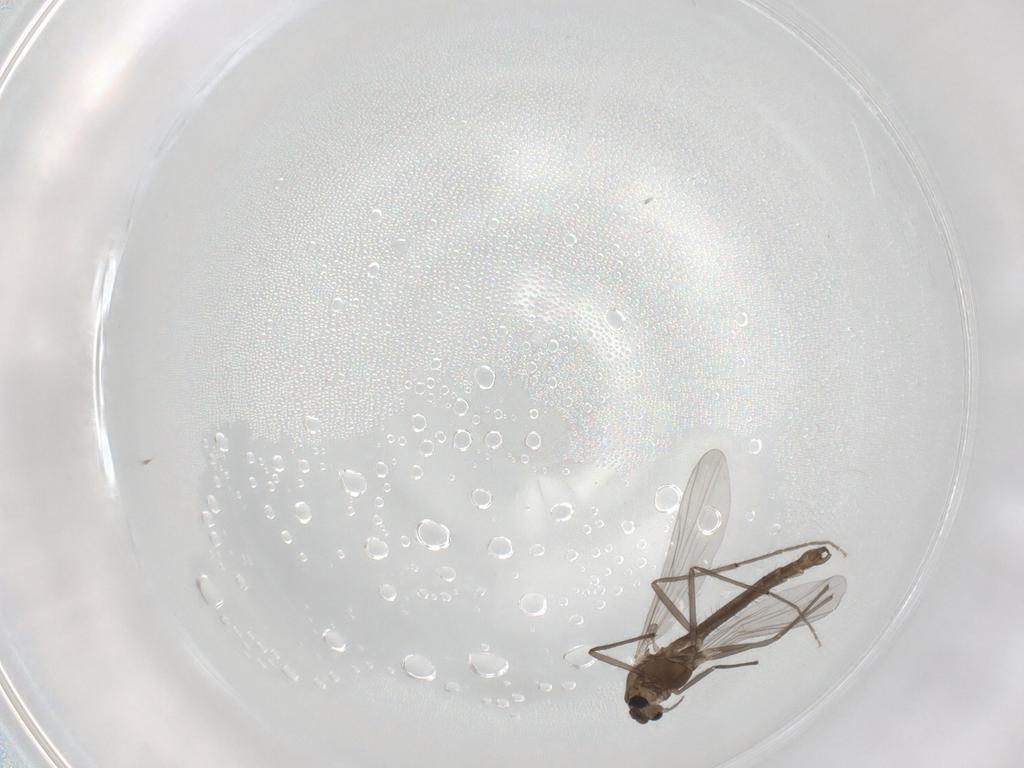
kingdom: Animalia
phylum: Arthropoda
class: Insecta
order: Diptera
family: Chironomidae
